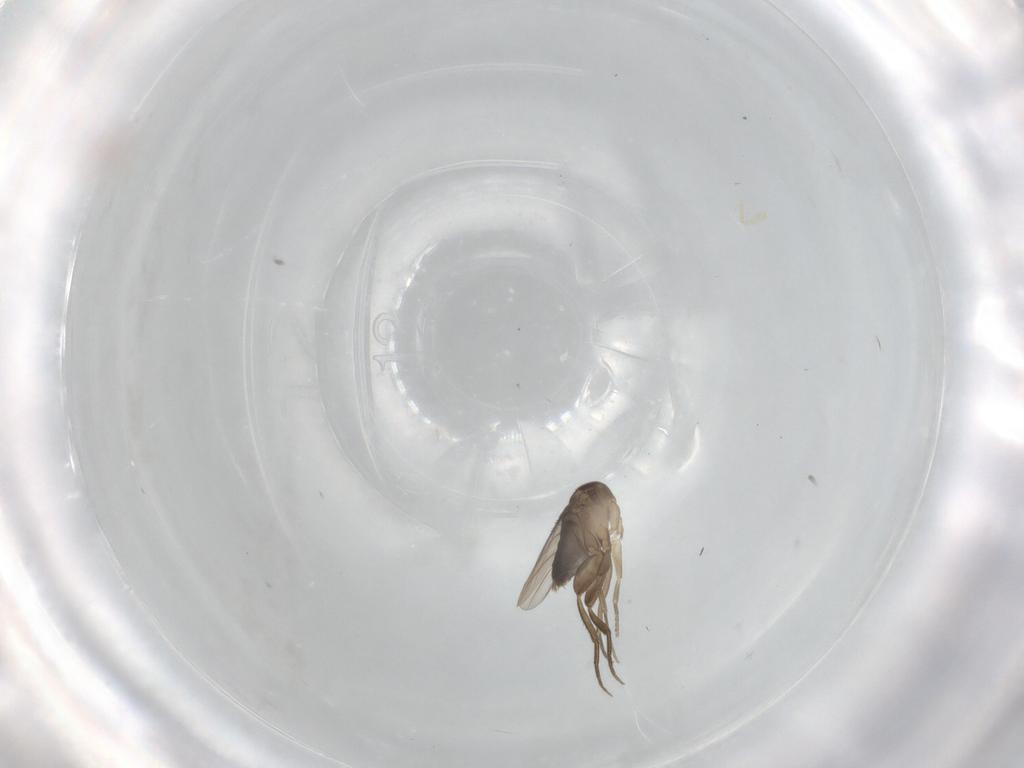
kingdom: Animalia
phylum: Arthropoda
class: Insecta
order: Diptera
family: Phoridae
